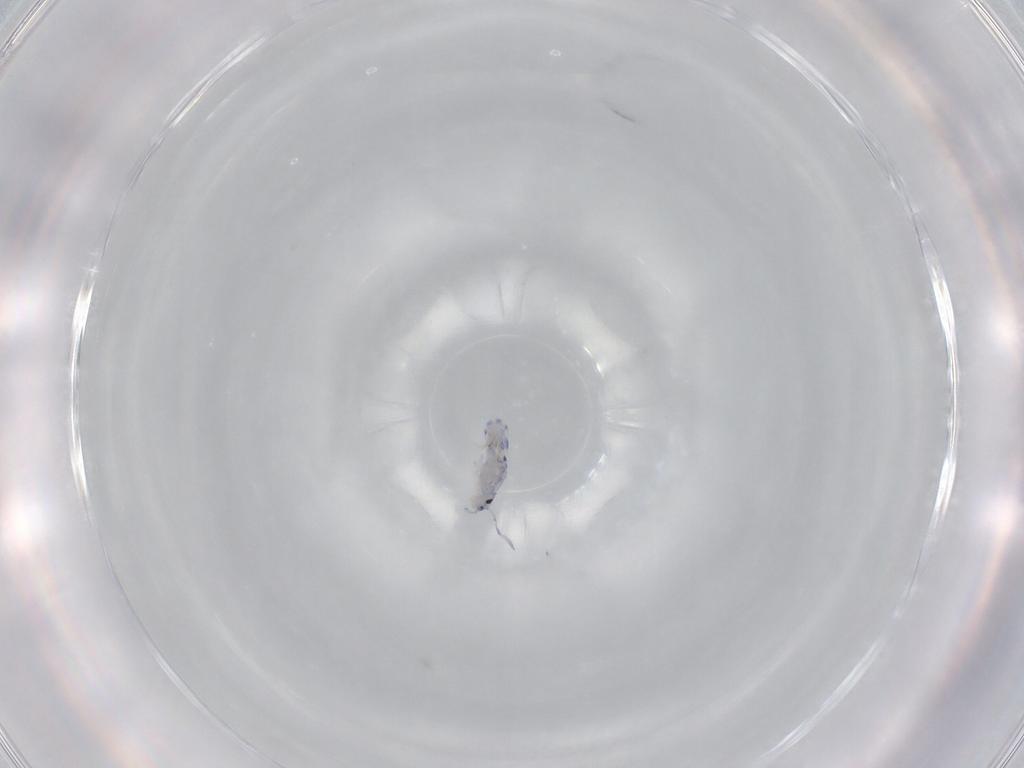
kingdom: Animalia
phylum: Arthropoda
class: Collembola
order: Entomobryomorpha
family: Entomobryidae
